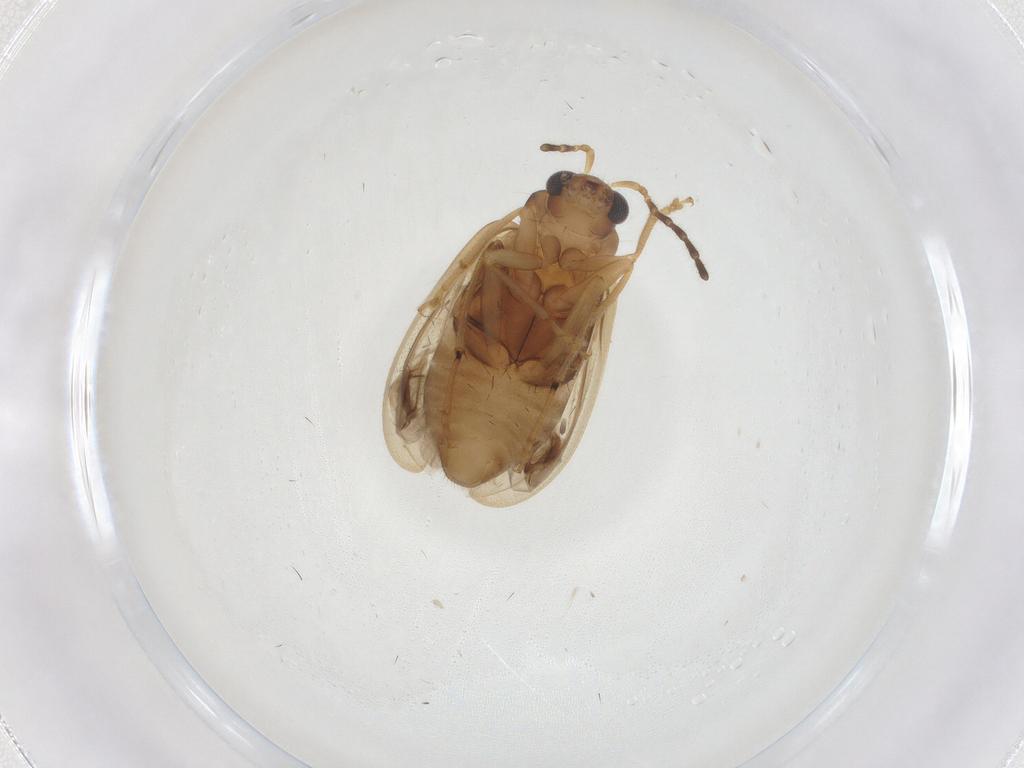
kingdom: Animalia
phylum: Arthropoda
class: Insecta
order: Coleoptera
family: Chrysomelidae
